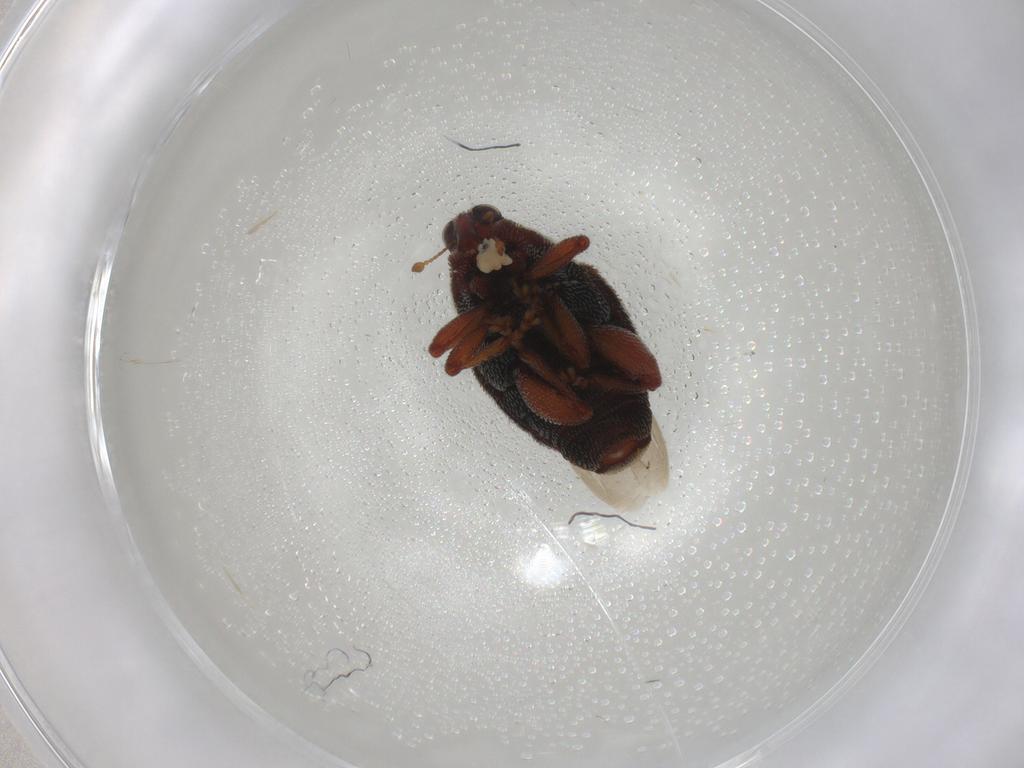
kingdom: Animalia
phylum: Arthropoda
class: Insecta
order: Coleoptera
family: Curculionidae
